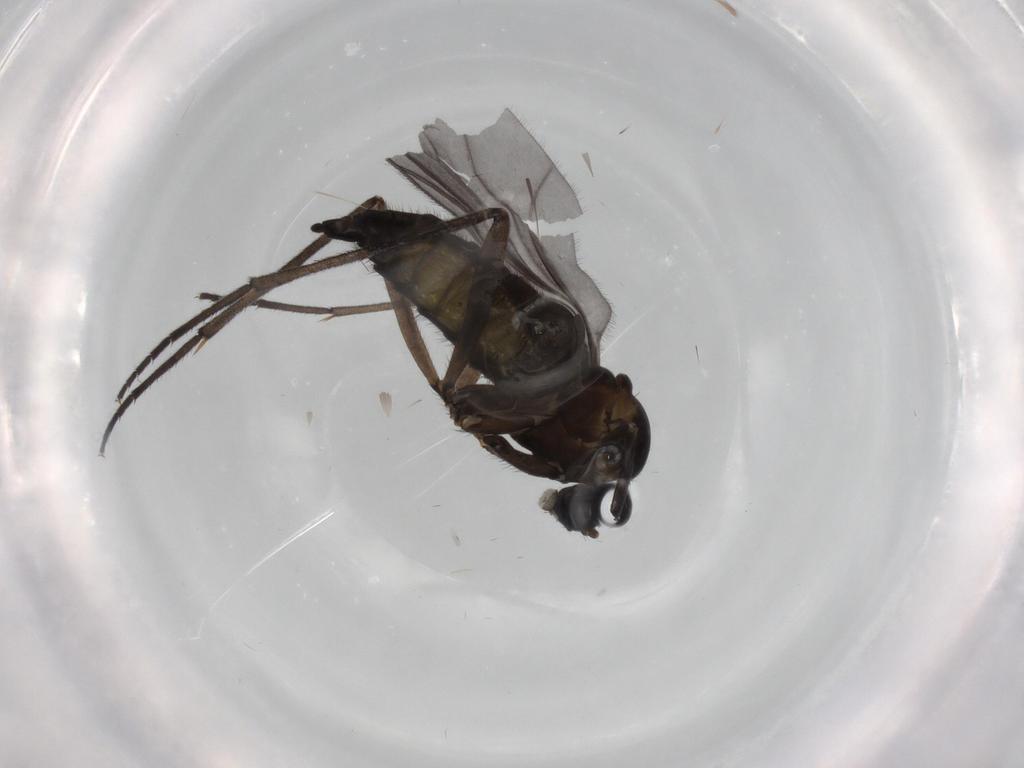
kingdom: Animalia
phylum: Arthropoda
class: Insecta
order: Diptera
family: Sciaridae
